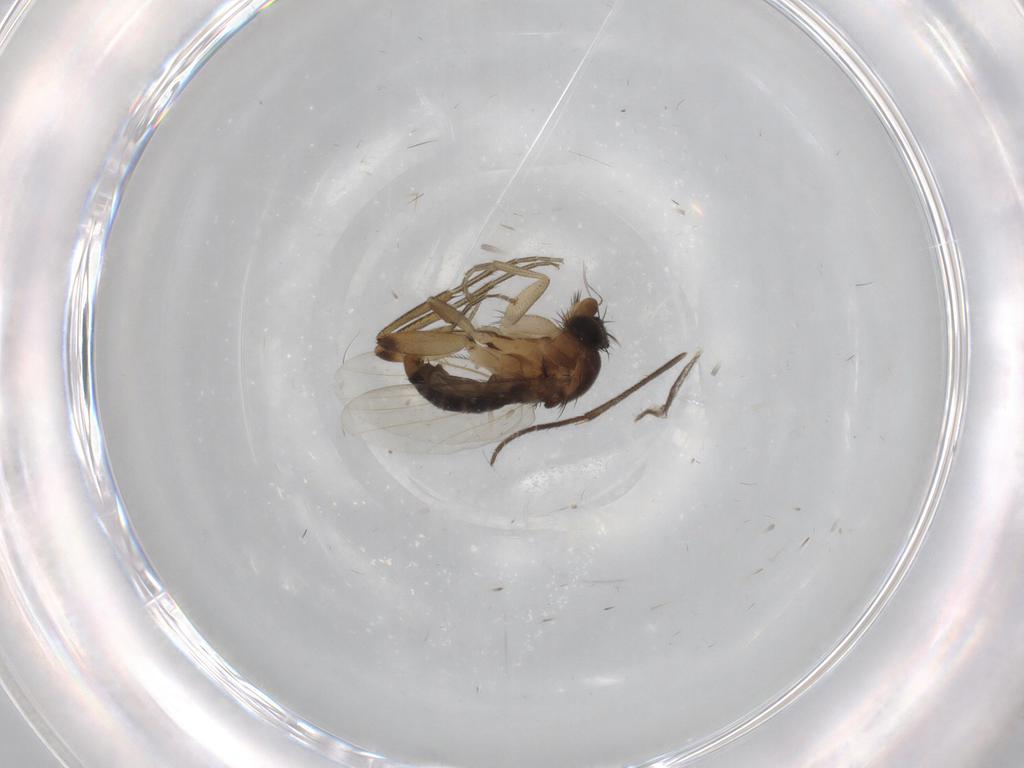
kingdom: Animalia
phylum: Arthropoda
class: Insecta
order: Diptera
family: Phoridae
